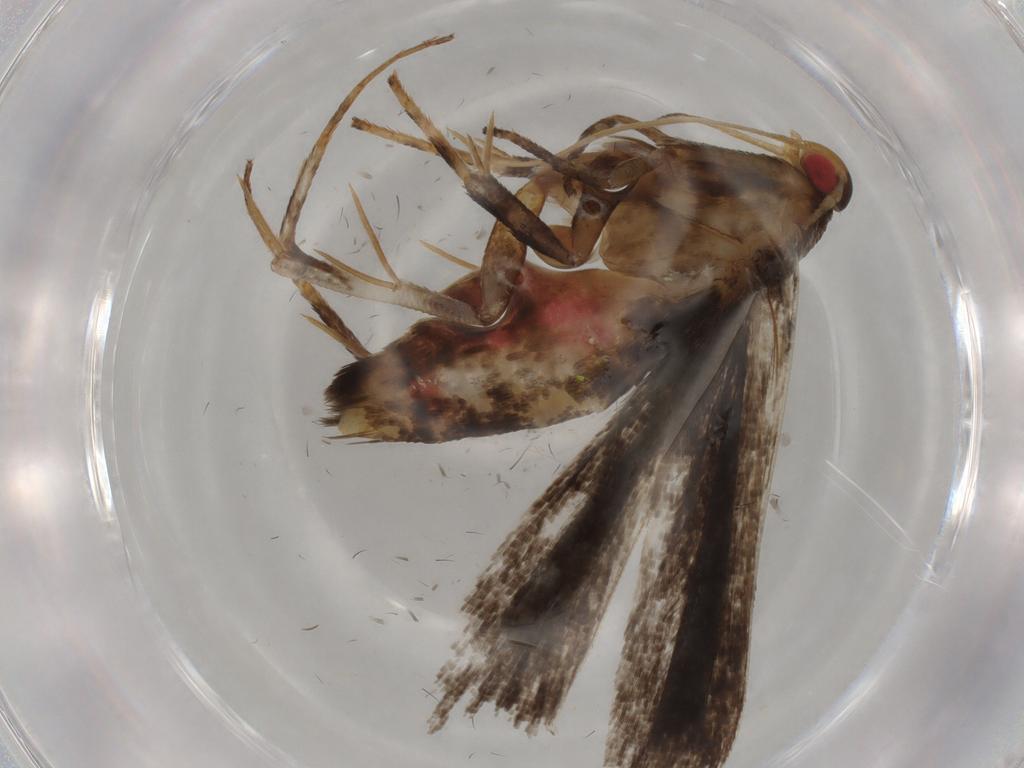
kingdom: Animalia
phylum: Arthropoda
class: Insecta
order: Lepidoptera
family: Gelechiidae
